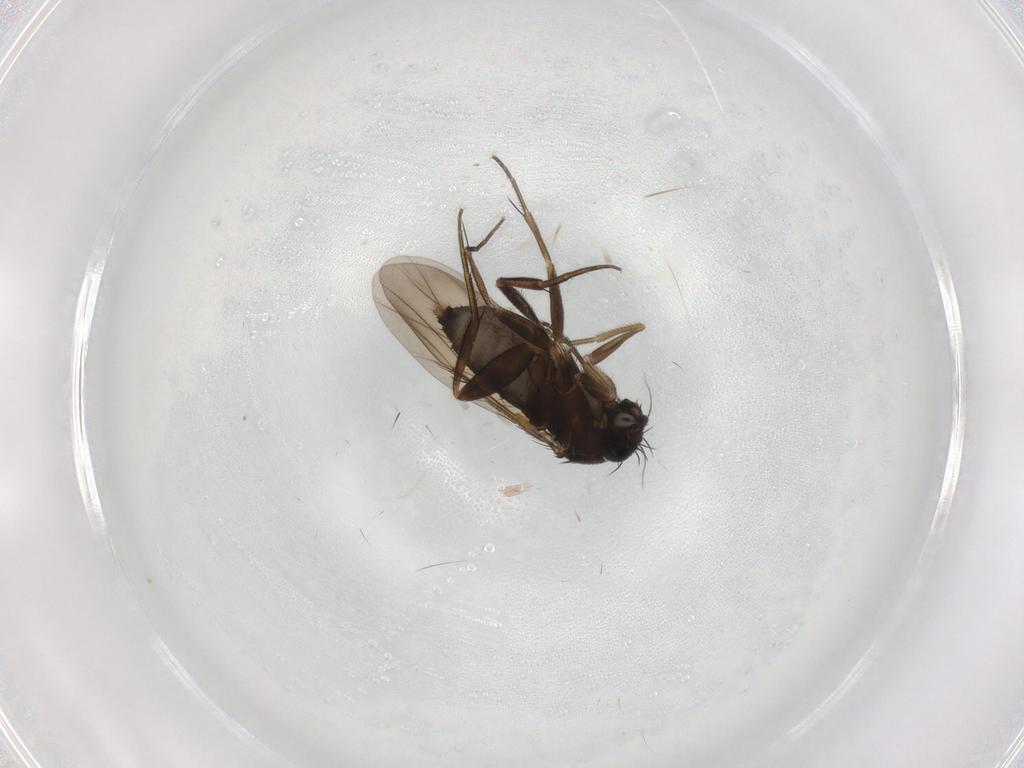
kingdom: Animalia
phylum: Arthropoda
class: Insecta
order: Diptera
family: Phoridae
